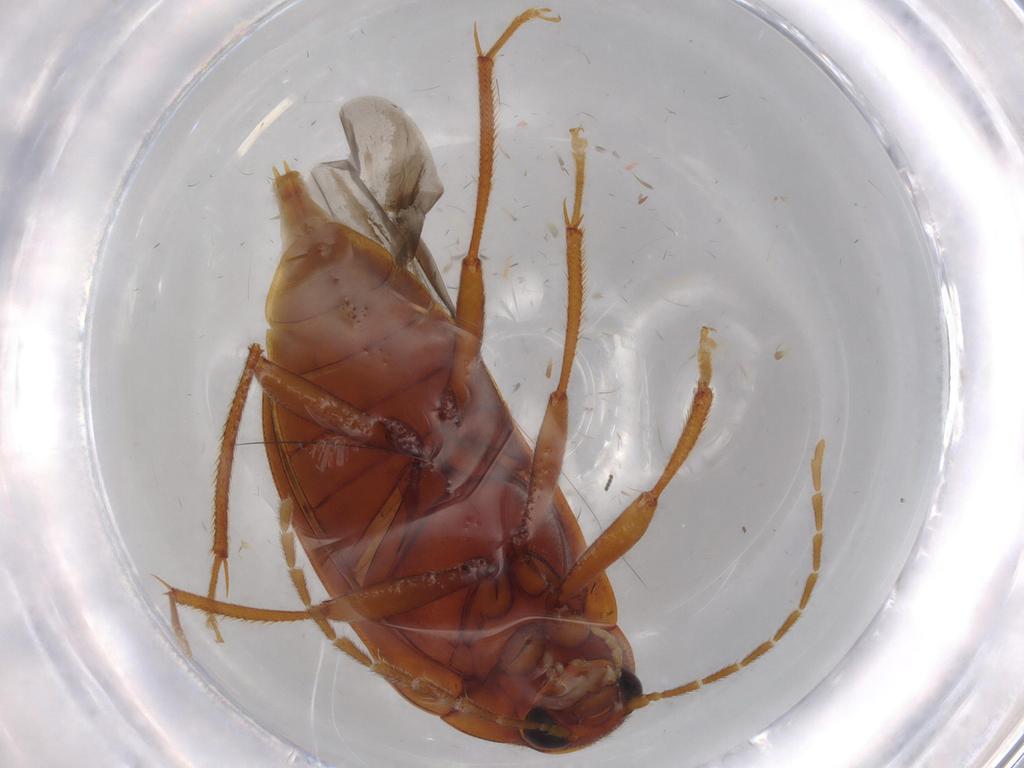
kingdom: Animalia
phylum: Arthropoda
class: Insecta
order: Coleoptera
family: Ptilodactylidae
